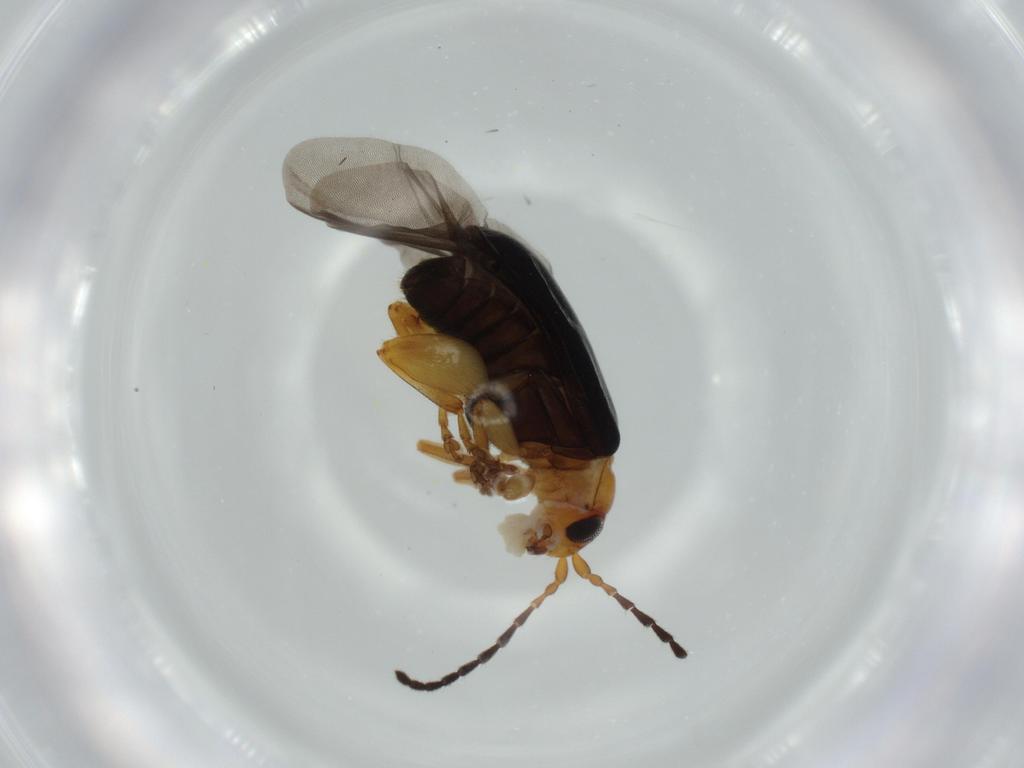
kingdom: Animalia
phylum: Arthropoda
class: Insecta
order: Coleoptera
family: Chrysomelidae
